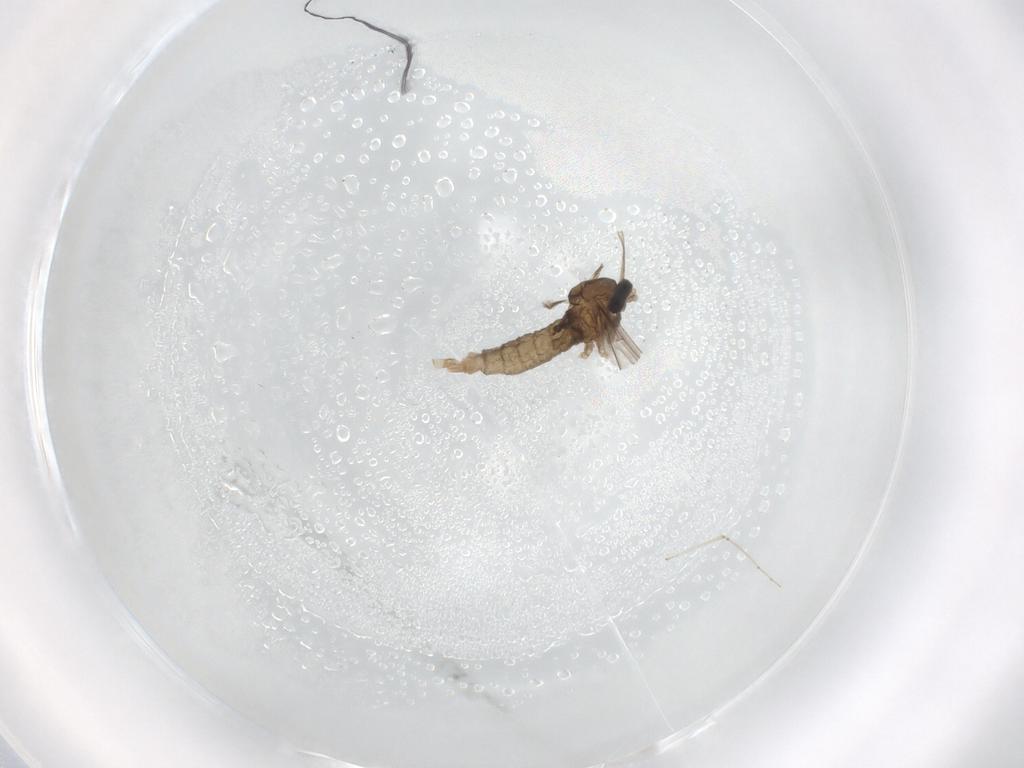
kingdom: Animalia
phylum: Arthropoda
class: Insecta
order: Diptera
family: Cecidomyiidae
